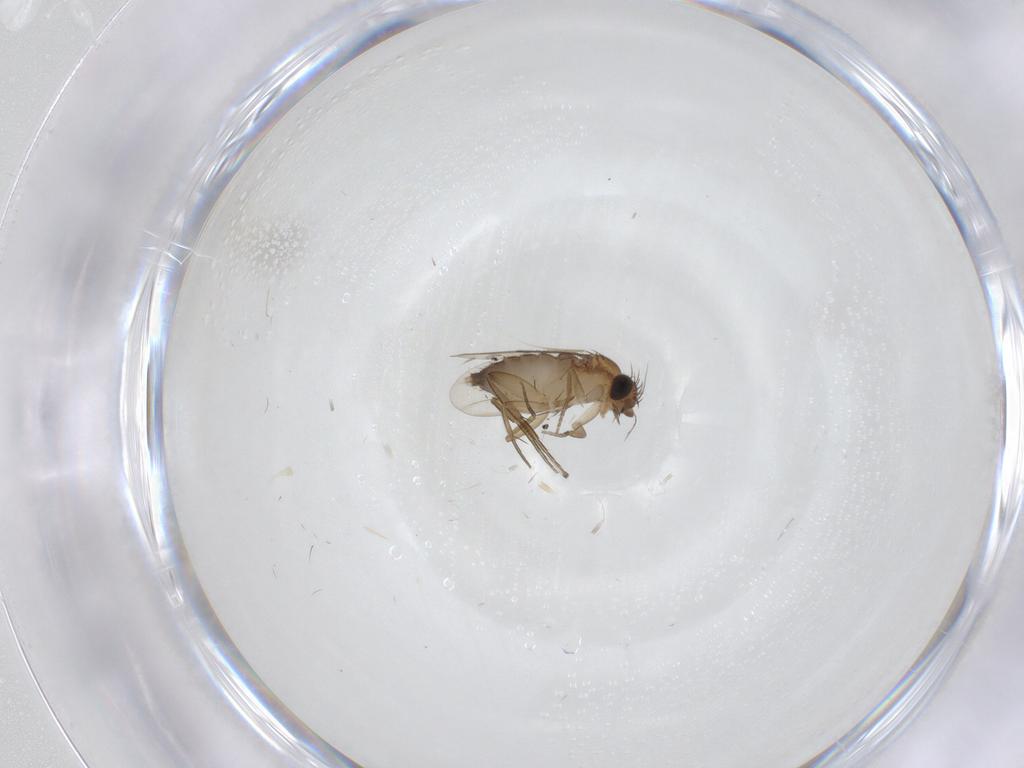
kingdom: Animalia
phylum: Arthropoda
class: Insecta
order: Diptera
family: Phoridae
